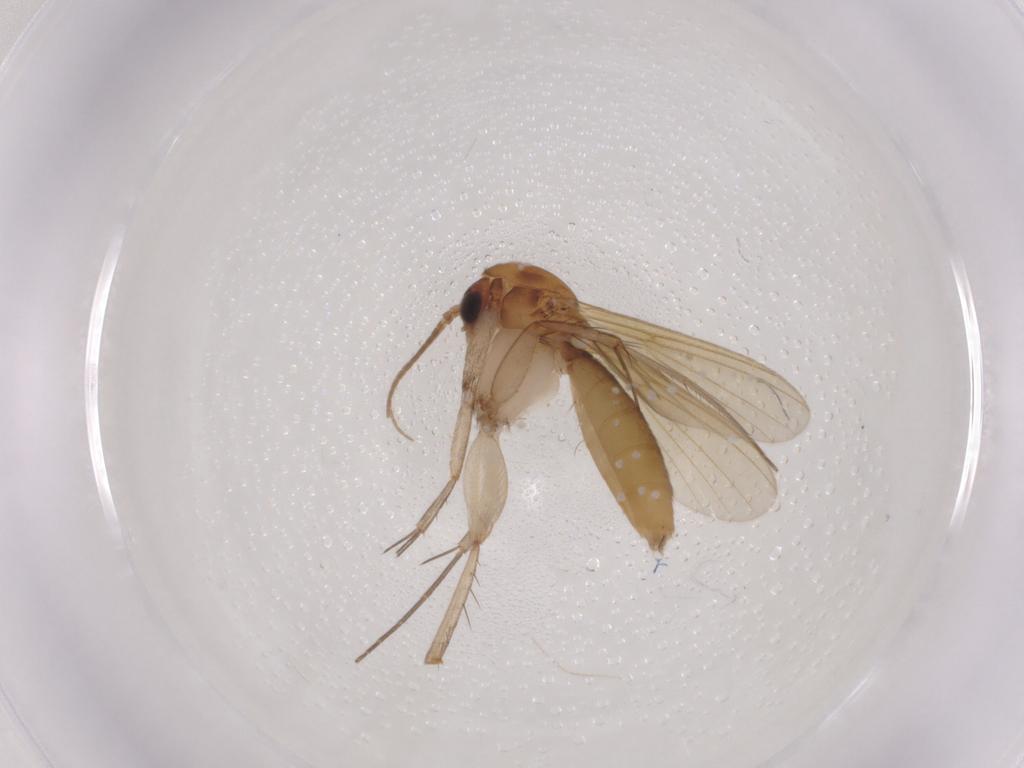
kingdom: Animalia
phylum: Arthropoda
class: Insecta
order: Diptera
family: Mycetophilidae
